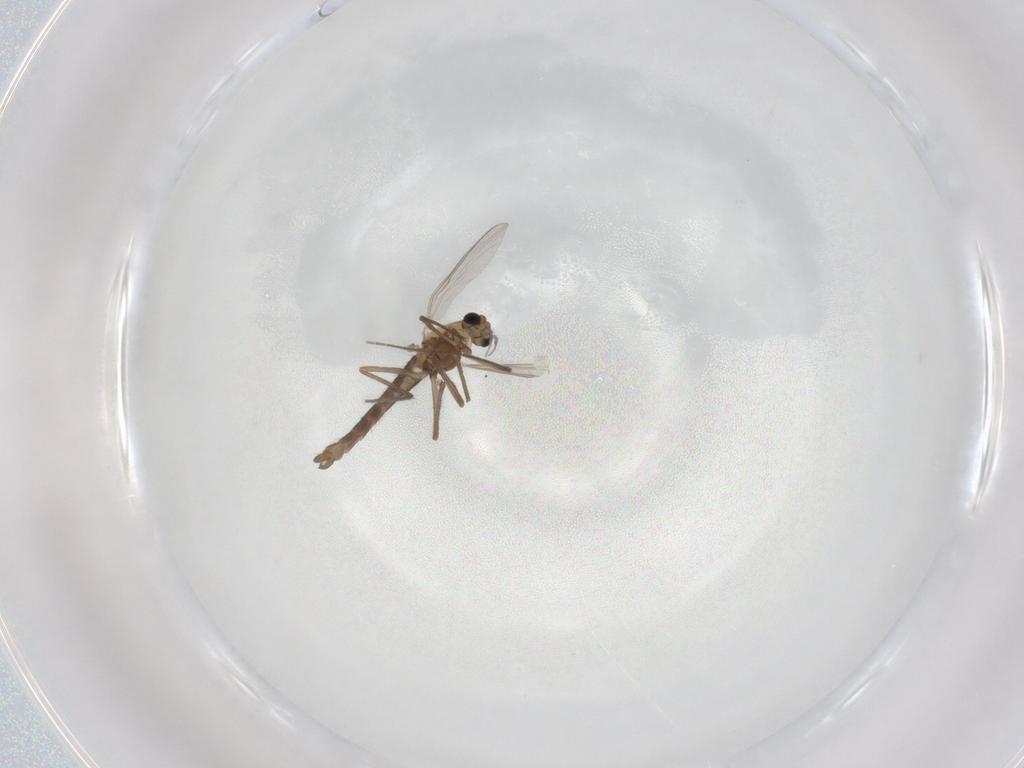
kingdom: Animalia
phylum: Arthropoda
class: Insecta
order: Diptera
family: Chironomidae
